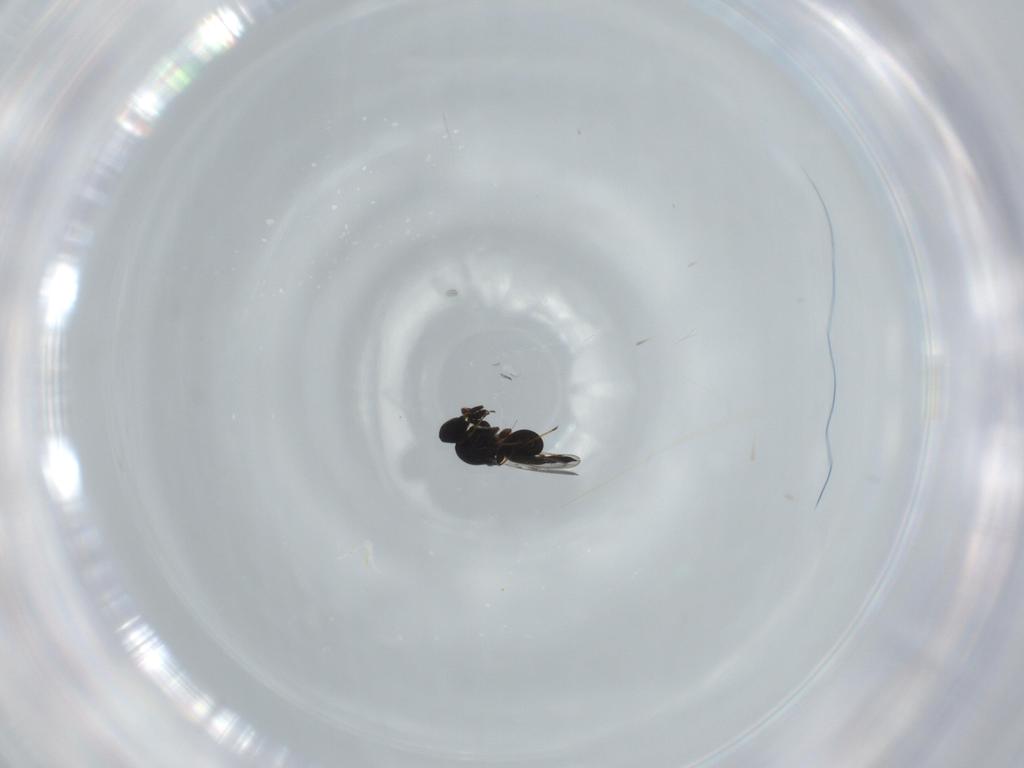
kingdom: Animalia
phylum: Arthropoda
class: Insecta
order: Hymenoptera
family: Platygastridae
